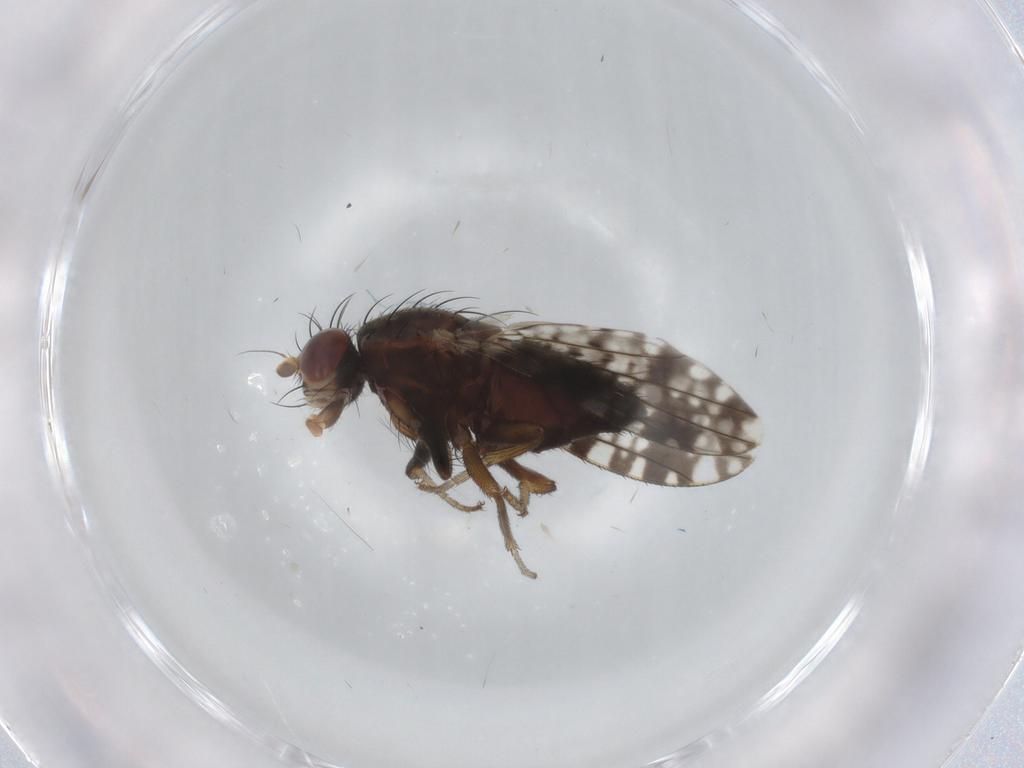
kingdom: Animalia
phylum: Arthropoda
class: Insecta
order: Diptera
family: Tephritidae
